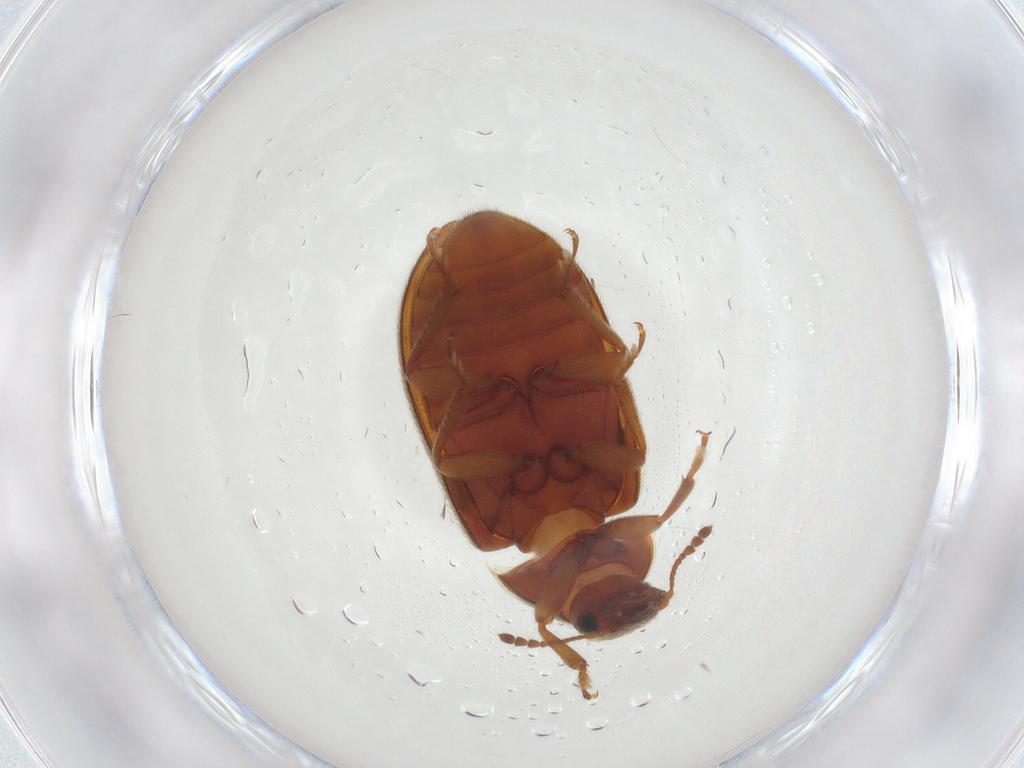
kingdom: Animalia
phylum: Arthropoda
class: Insecta
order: Coleoptera
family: Byturidae
